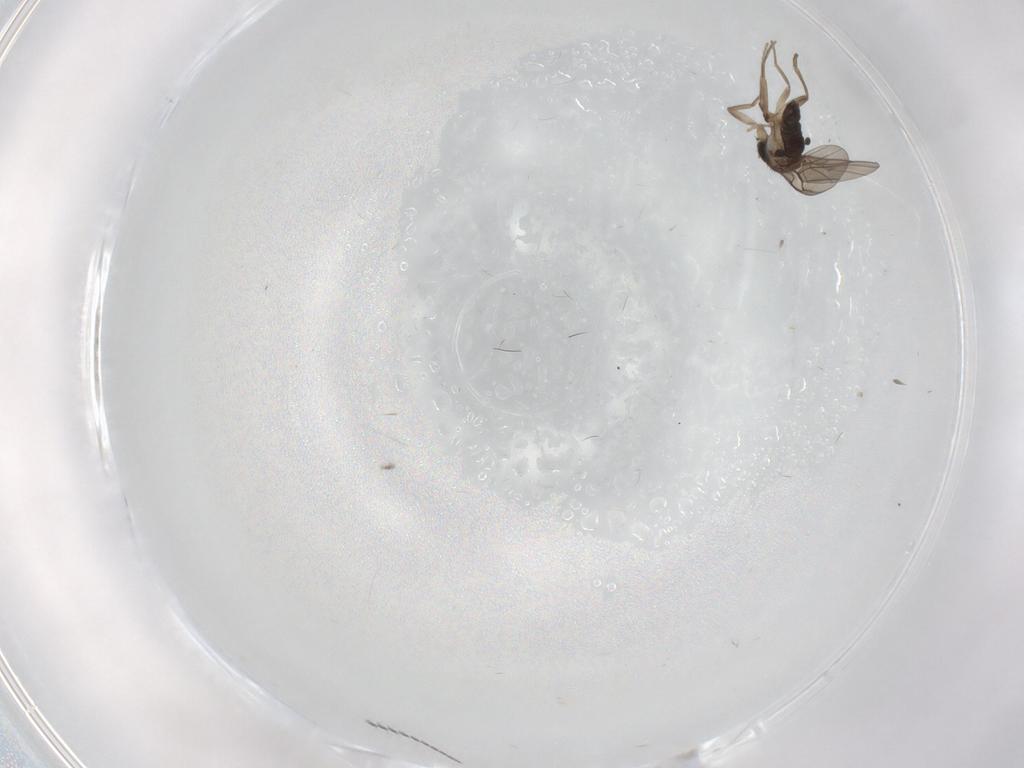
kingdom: Animalia
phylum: Arthropoda
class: Insecta
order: Diptera
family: Phoridae
